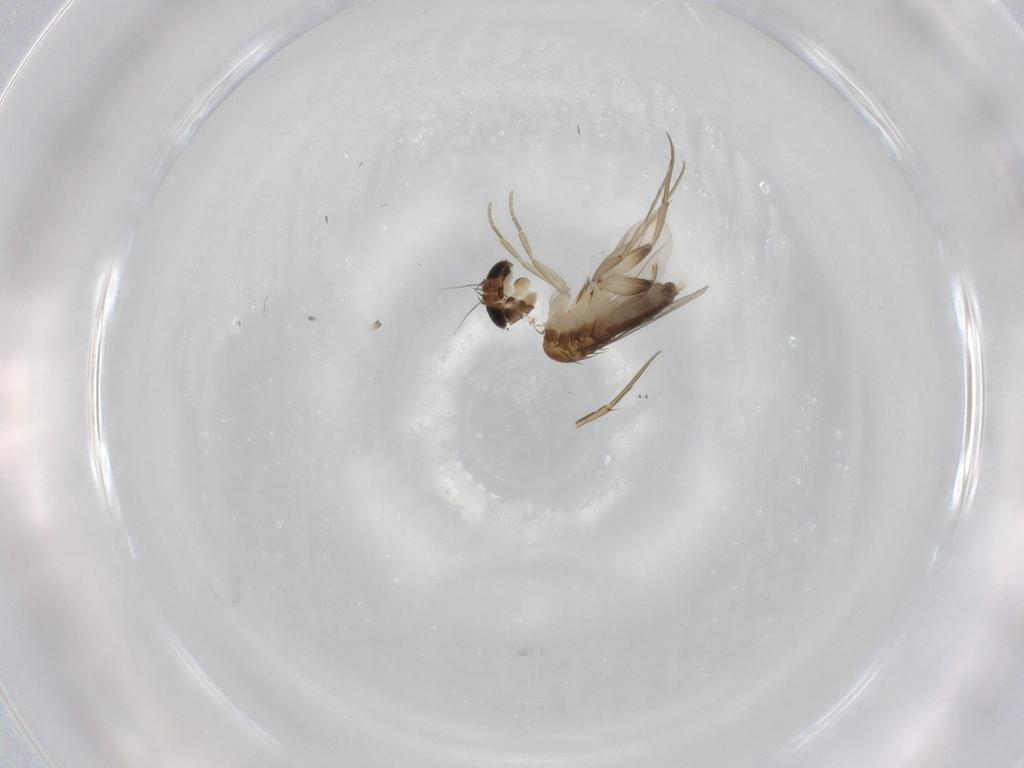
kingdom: Animalia
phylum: Arthropoda
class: Insecta
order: Diptera
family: Phoridae
